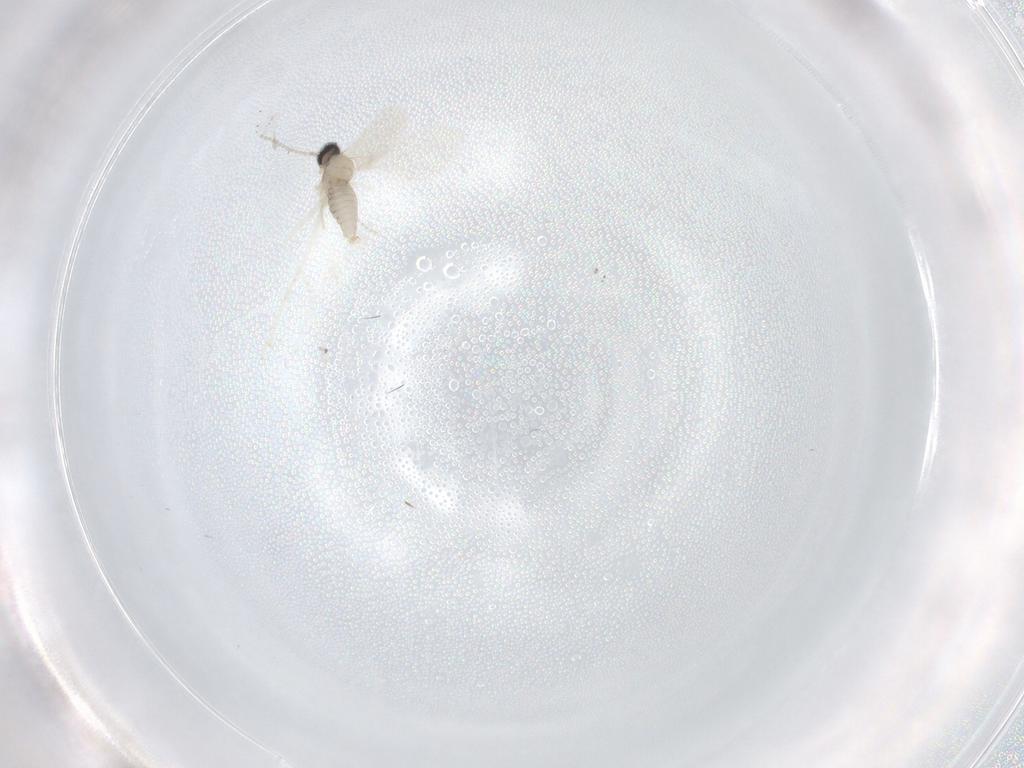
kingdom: Animalia
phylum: Arthropoda
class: Insecta
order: Diptera
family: Cecidomyiidae
